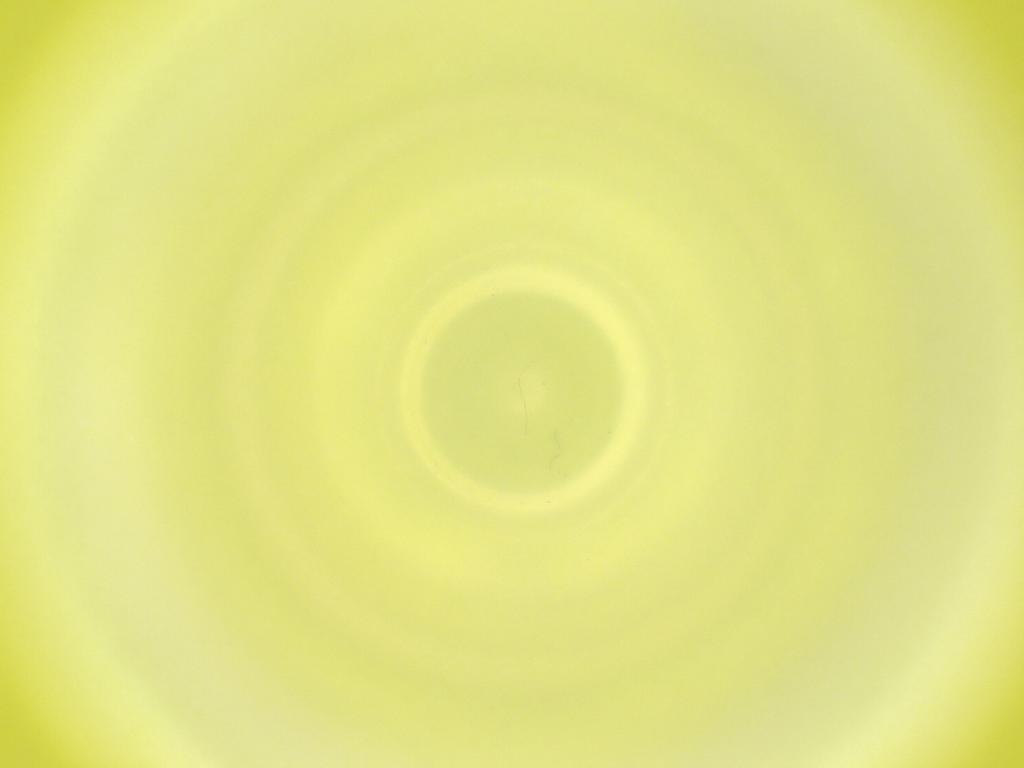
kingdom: Animalia
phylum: Arthropoda
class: Insecta
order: Diptera
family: Cecidomyiidae
